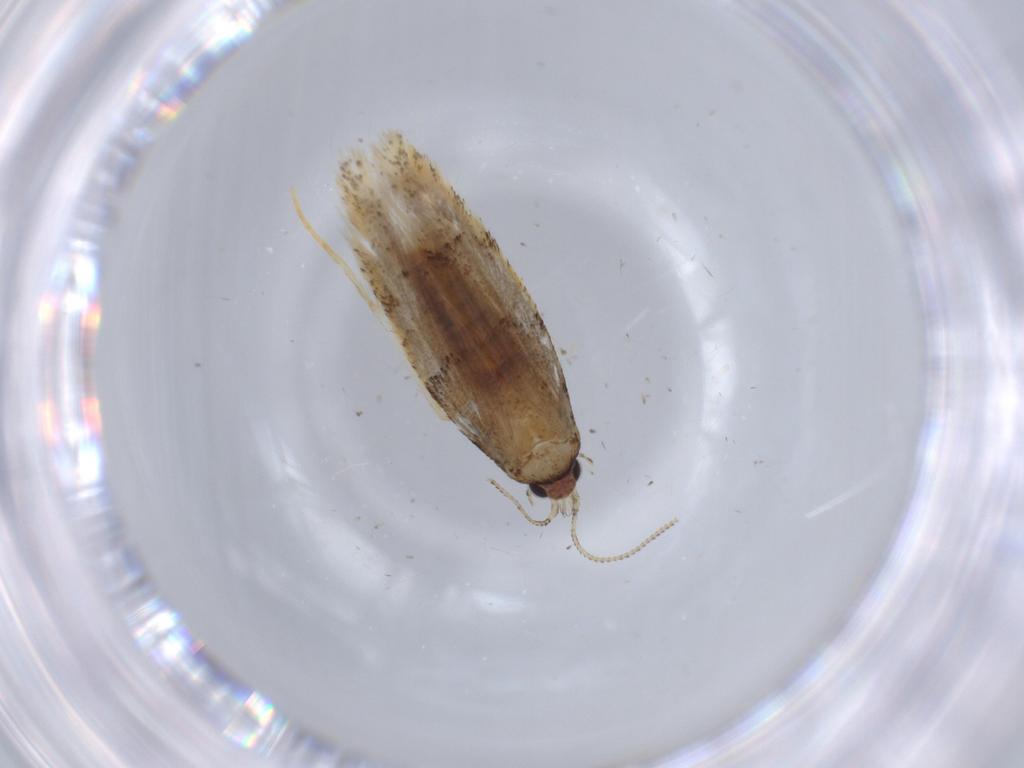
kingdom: Animalia
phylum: Arthropoda
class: Insecta
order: Lepidoptera
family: Tineidae
